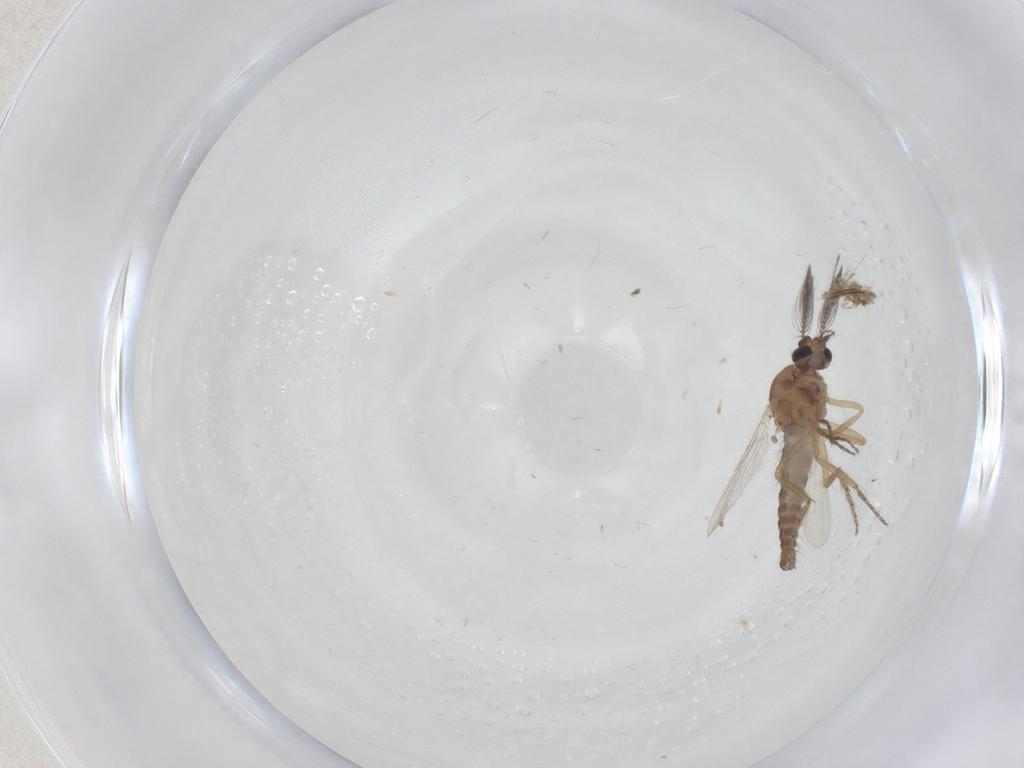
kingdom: Animalia
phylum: Arthropoda
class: Insecta
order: Diptera
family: Ceratopogonidae
